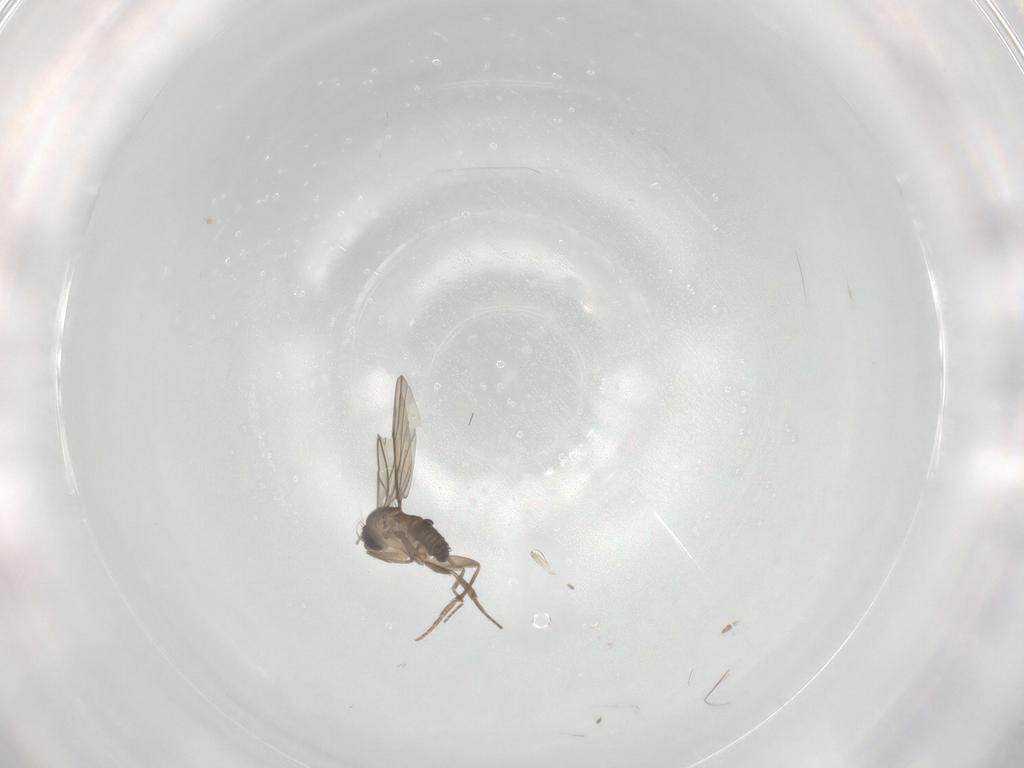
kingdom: Animalia
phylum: Arthropoda
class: Insecta
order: Diptera
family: Phoridae
